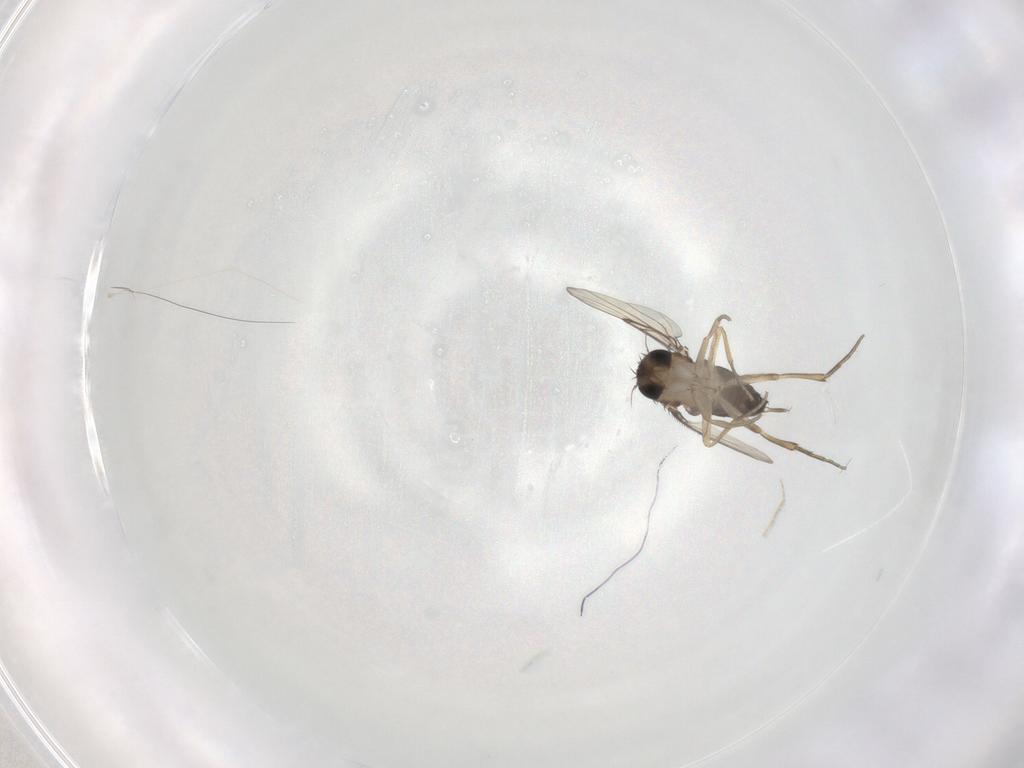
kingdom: Animalia
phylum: Arthropoda
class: Insecta
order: Diptera
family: Phoridae
